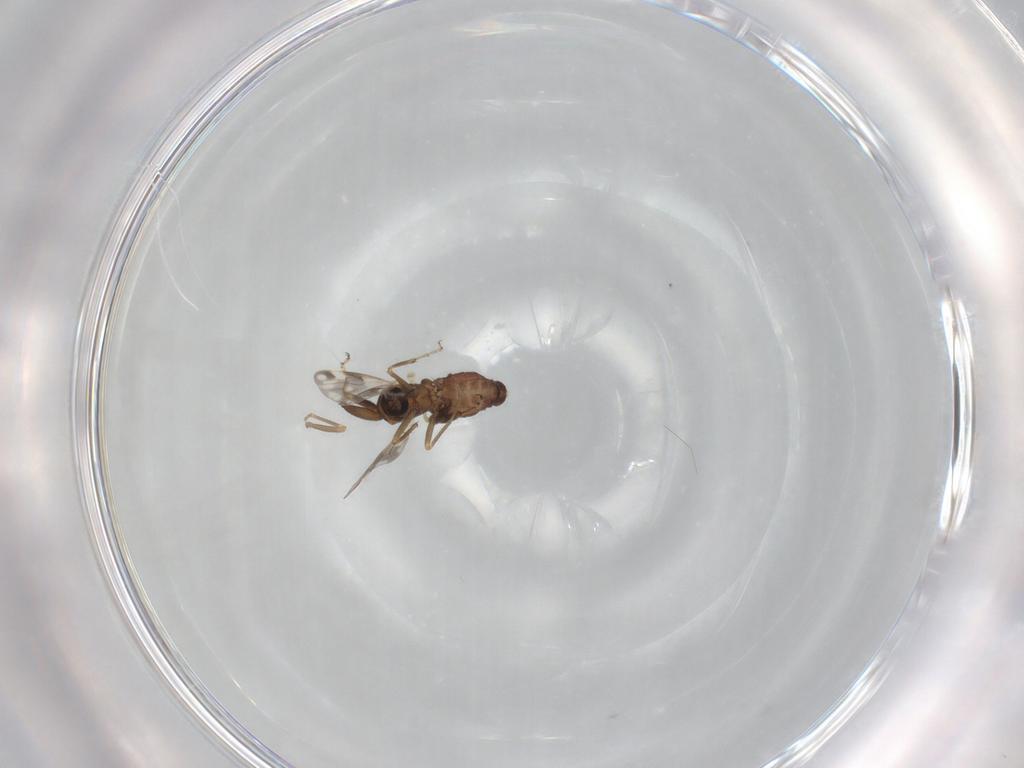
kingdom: Animalia
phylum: Arthropoda
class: Insecta
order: Diptera
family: Ceratopogonidae
